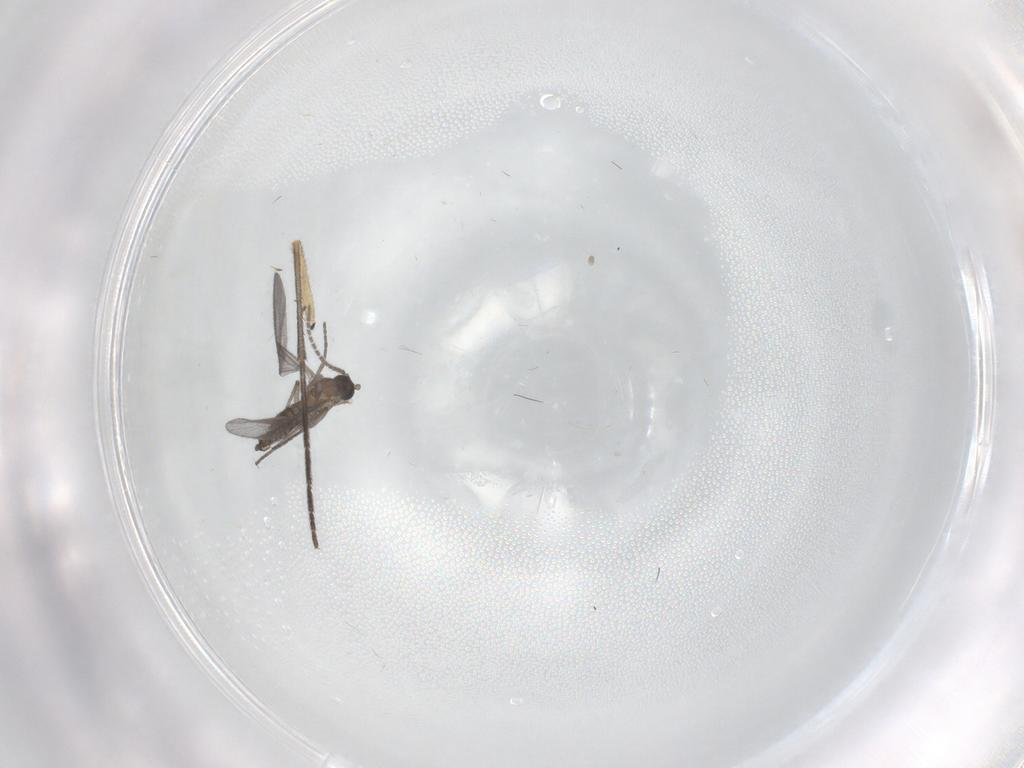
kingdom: Animalia
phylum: Arthropoda
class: Insecta
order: Diptera
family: Sciaridae
